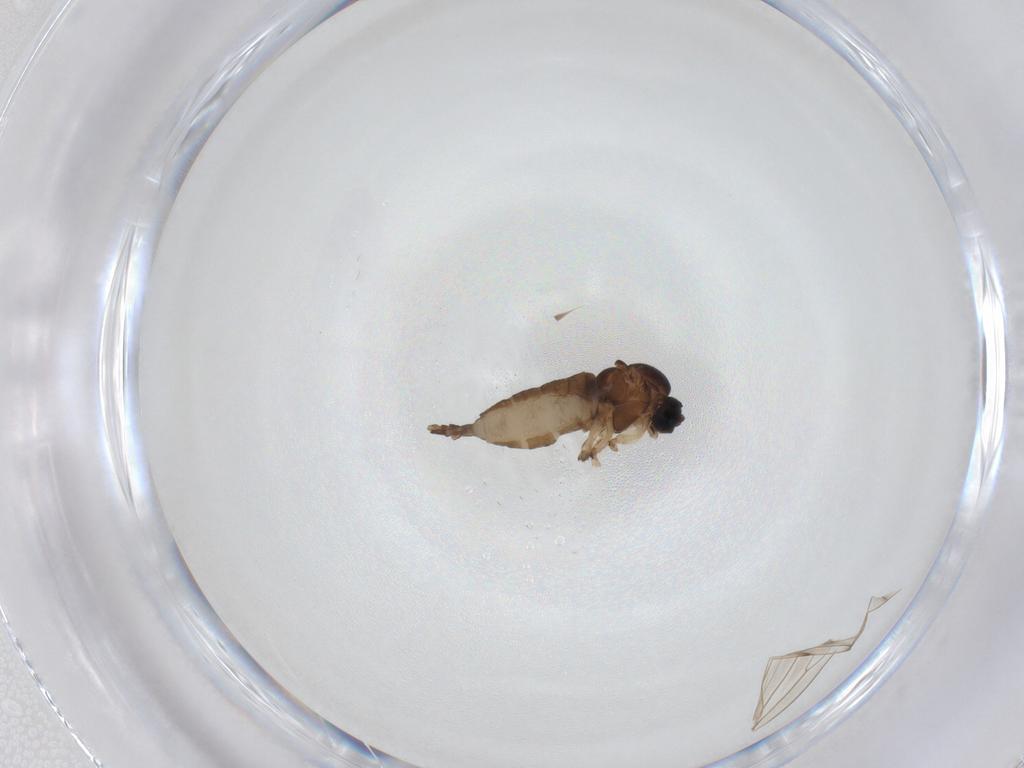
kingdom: Animalia
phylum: Arthropoda
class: Insecta
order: Diptera
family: Sciaridae
